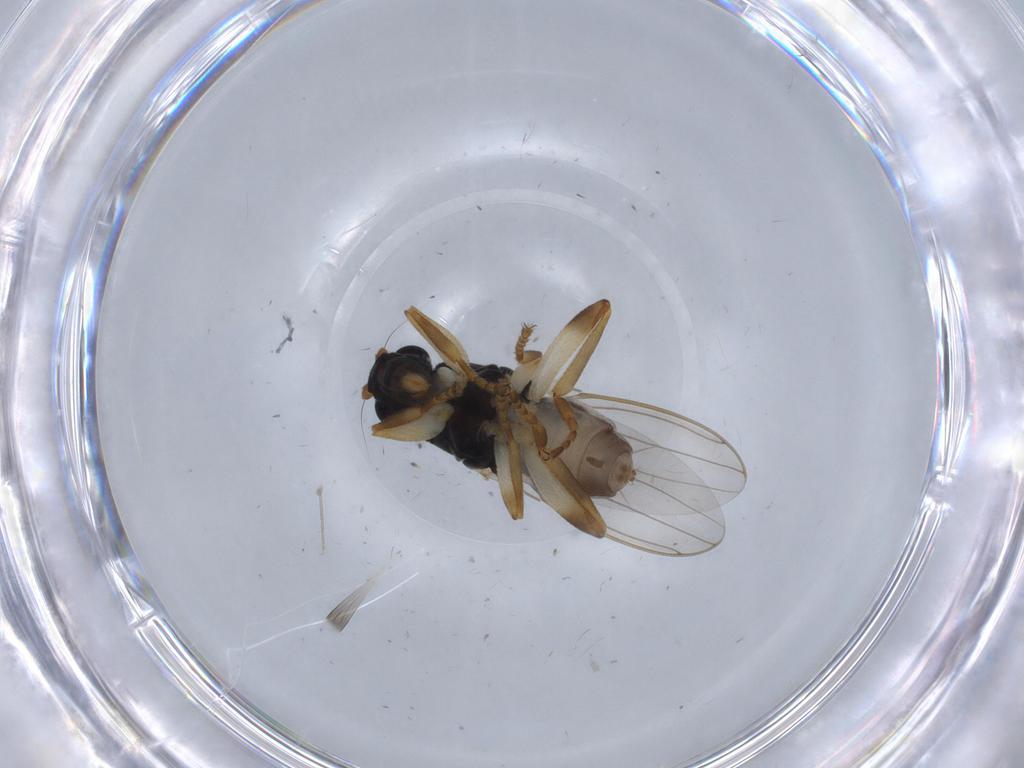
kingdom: Animalia
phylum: Arthropoda
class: Insecta
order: Diptera
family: Sphaeroceridae
